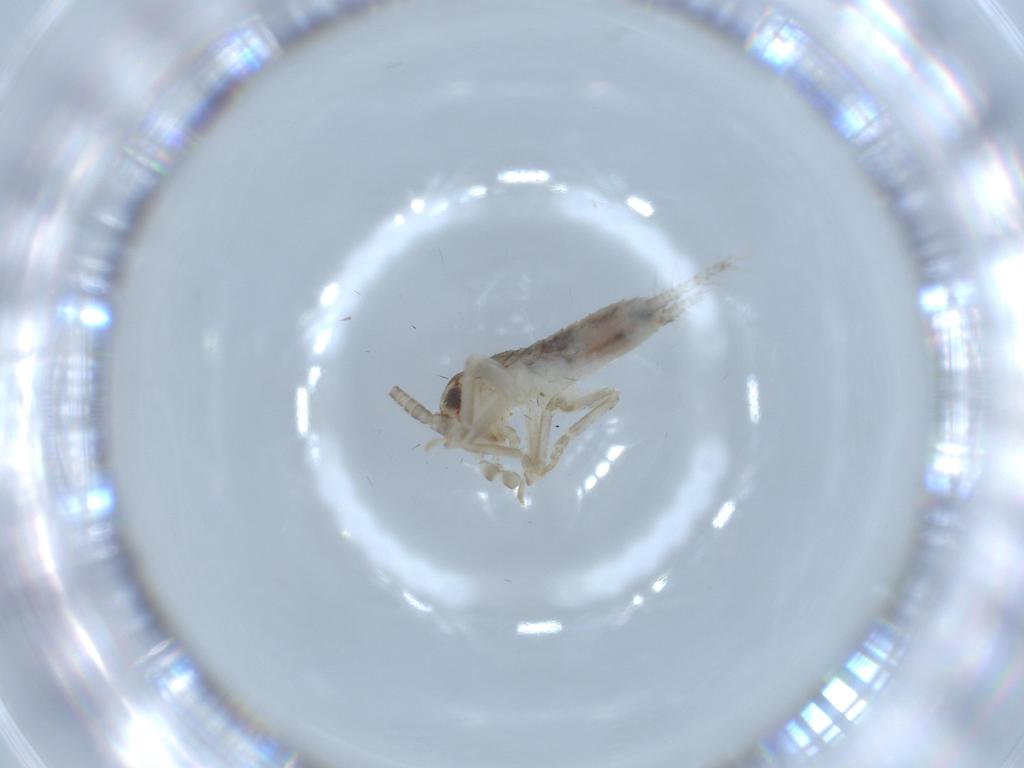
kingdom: Animalia
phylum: Arthropoda
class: Insecta
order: Orthoptera
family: Gryllidae
